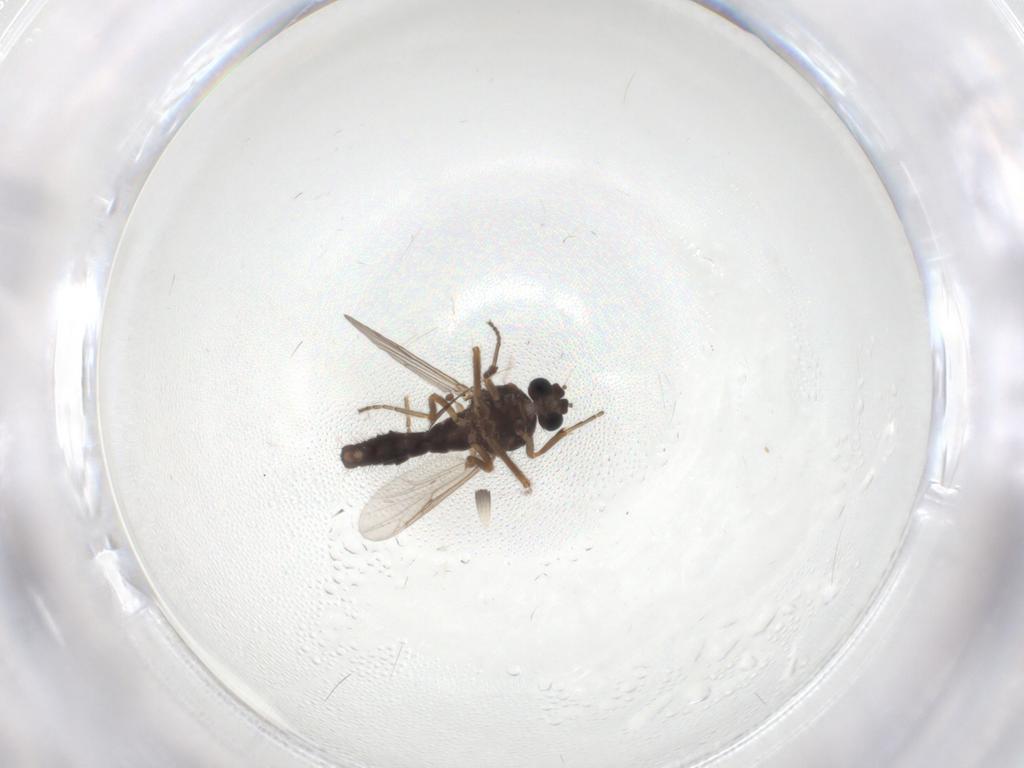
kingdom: Animalia
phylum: Arthropoda
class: Insecta
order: Diptera
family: Ceratopogonidae
